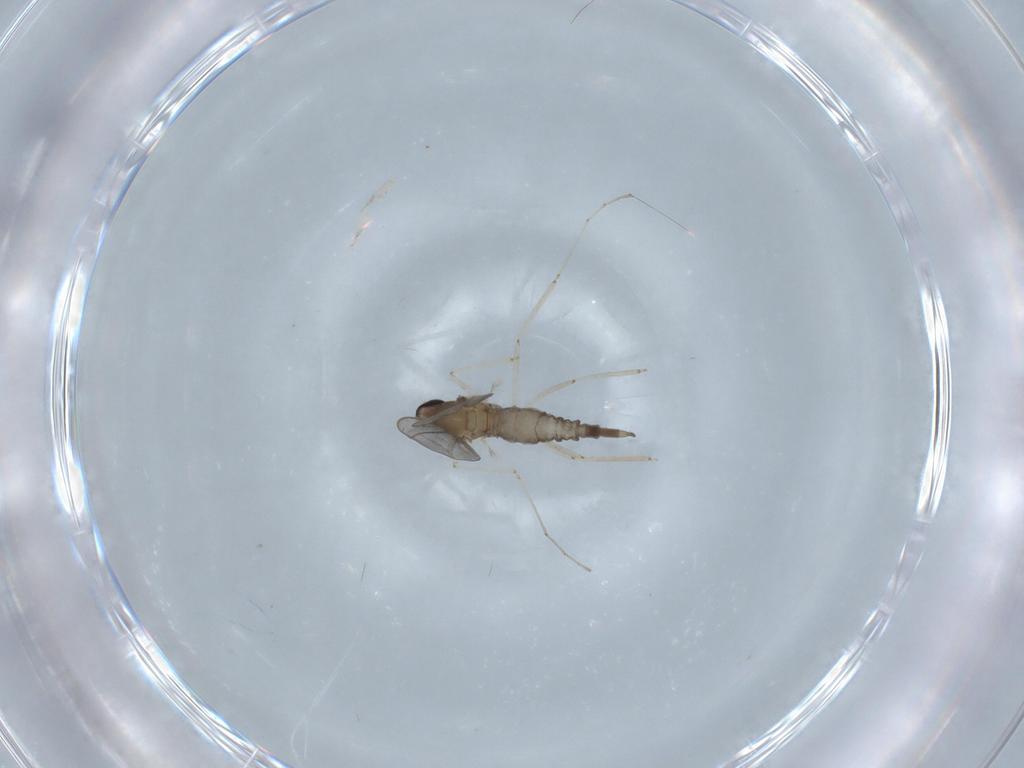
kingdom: Animalia
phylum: Arthropoda
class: Insecta
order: Diptera
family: Cecidomyiidae
